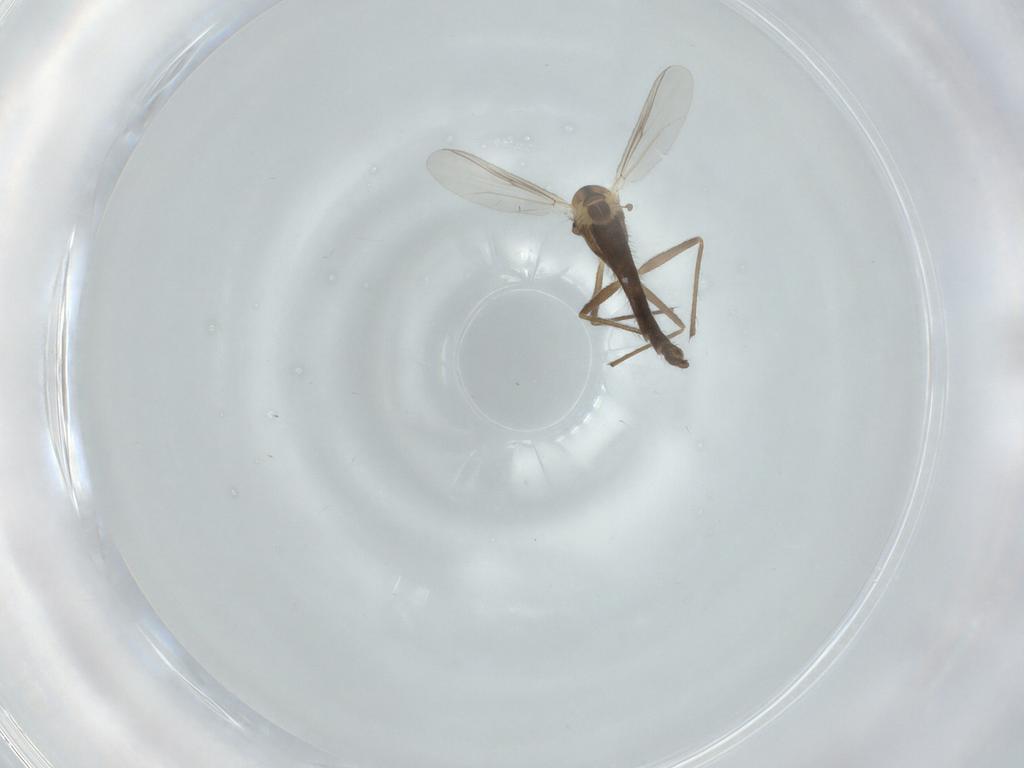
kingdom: Animalia
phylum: Arthropoda
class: Insecta
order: Diptera
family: Chironomidae
